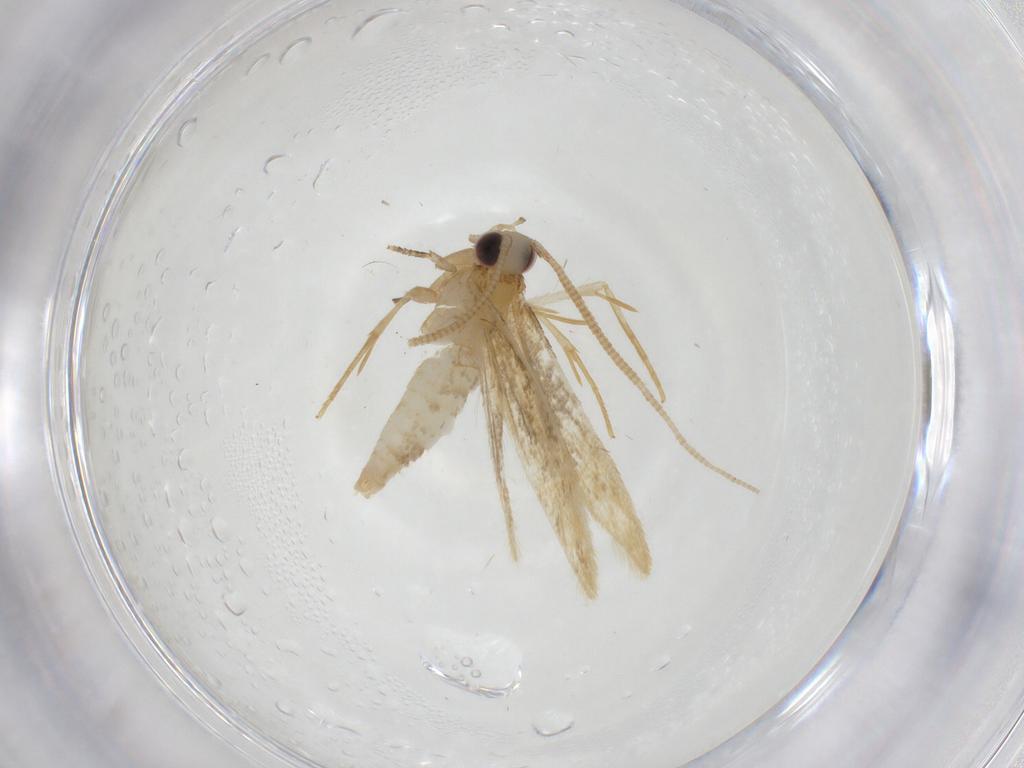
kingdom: Animalia
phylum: Arthropoda
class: Insecta
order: Lepidoptera
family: Tineidae
